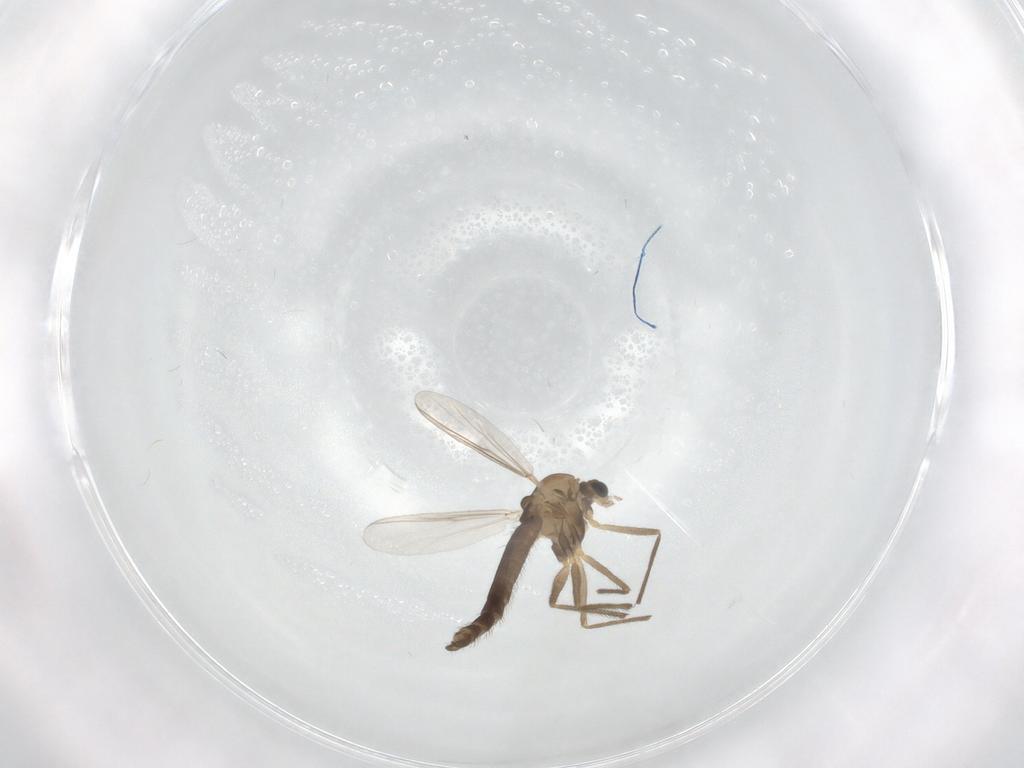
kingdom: Animalia
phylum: Arthropoda
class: Insecta
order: Diptera
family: Chironomidae
